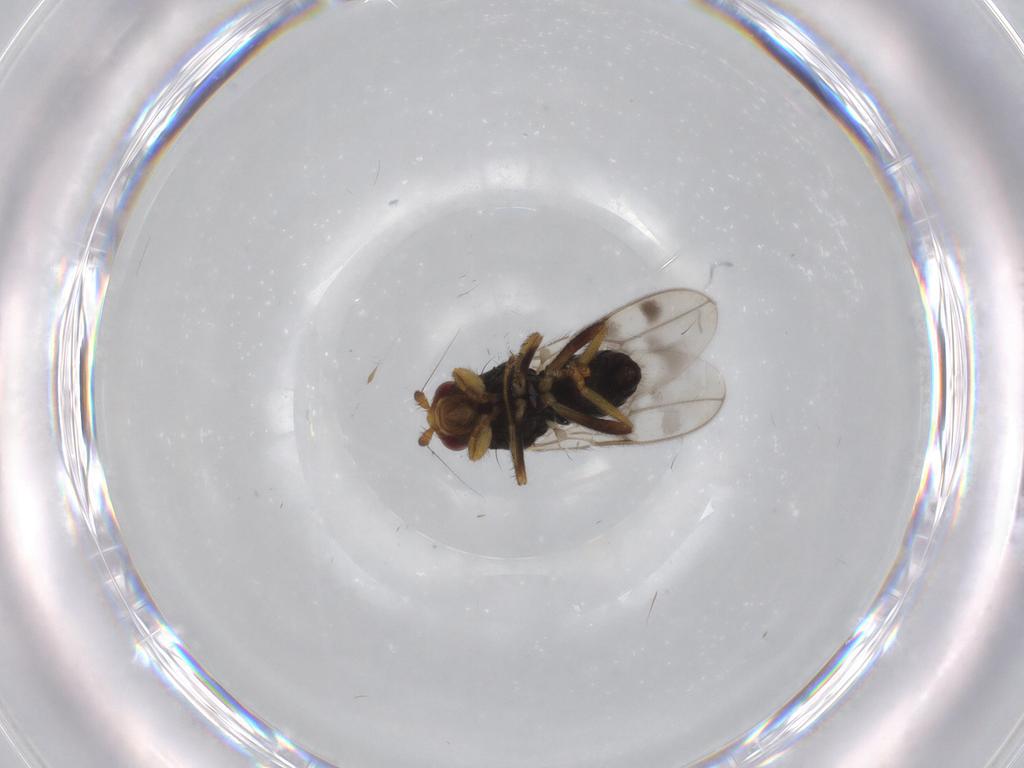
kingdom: Animalia
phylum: Arthropoda
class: Insecta
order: Diptera
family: Sphaeroceridae
